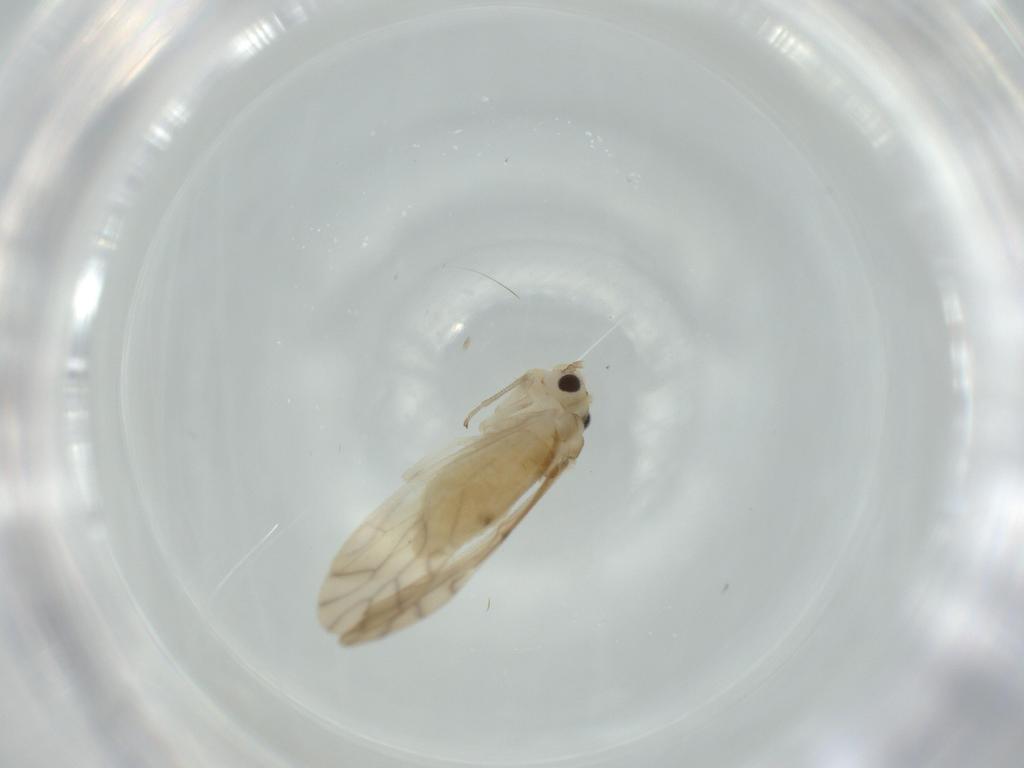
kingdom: Animalia
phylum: Arthropoda
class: Insecta
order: Psocodea
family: Caeciliusidae
